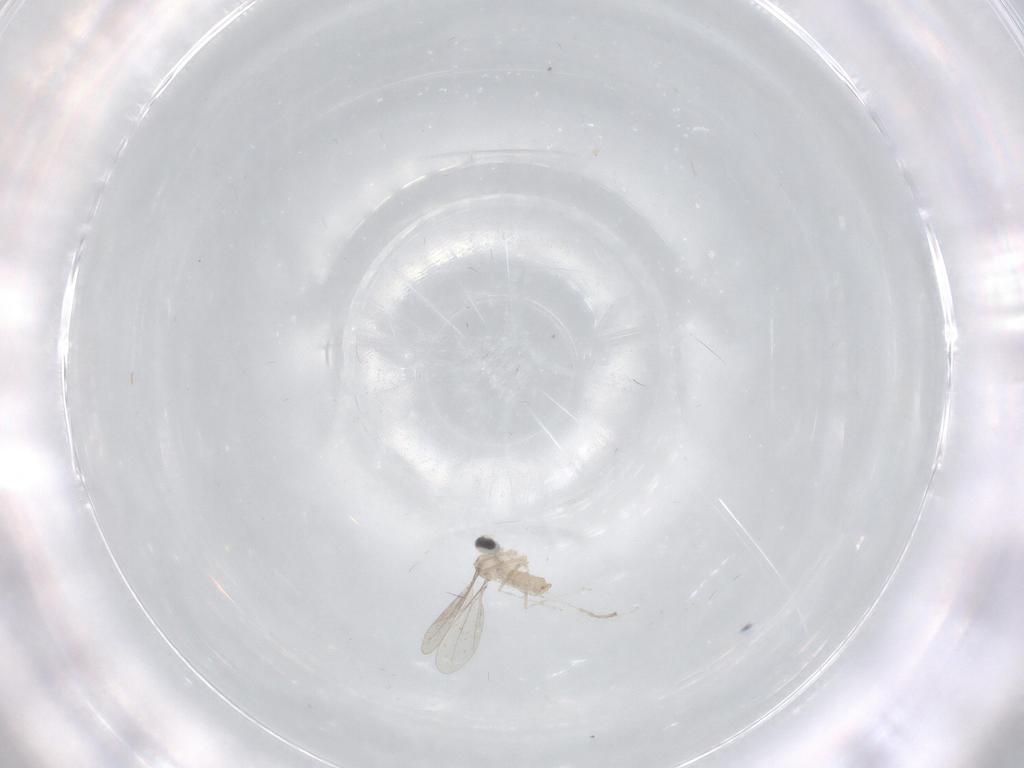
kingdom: Animalia
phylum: Arthropoda
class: Insecta
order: Diptera
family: Cecidomyiidae
